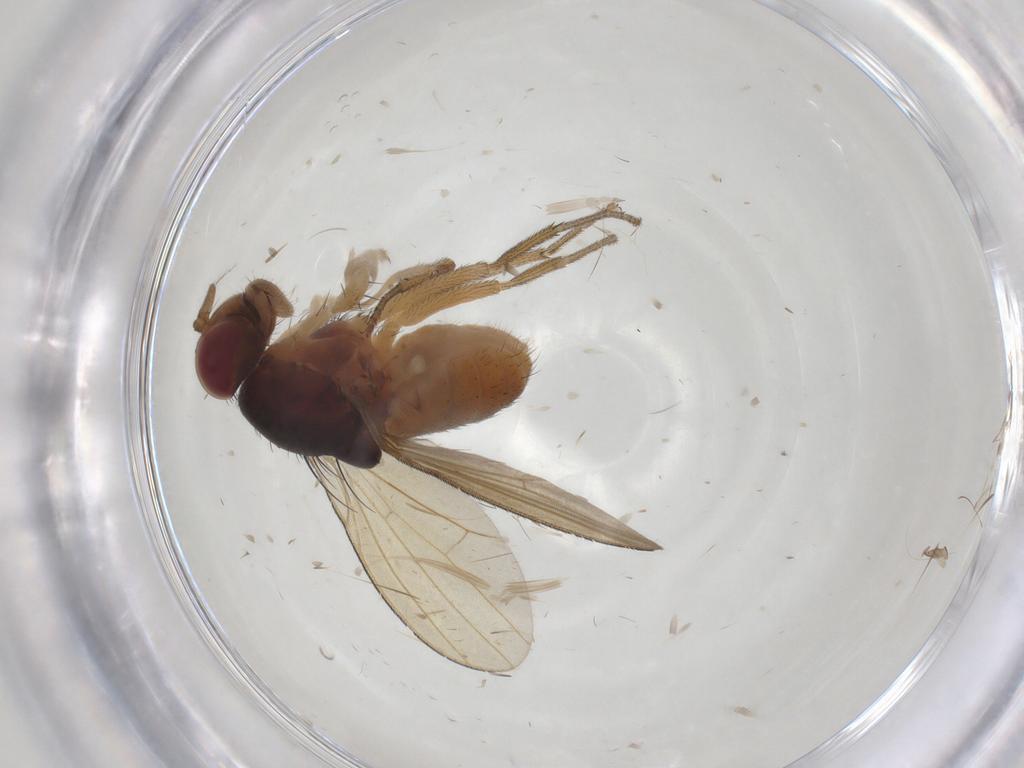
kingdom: Animalia
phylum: Arthropoda
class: Insecta
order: Diptera
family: Lauxaniidae
